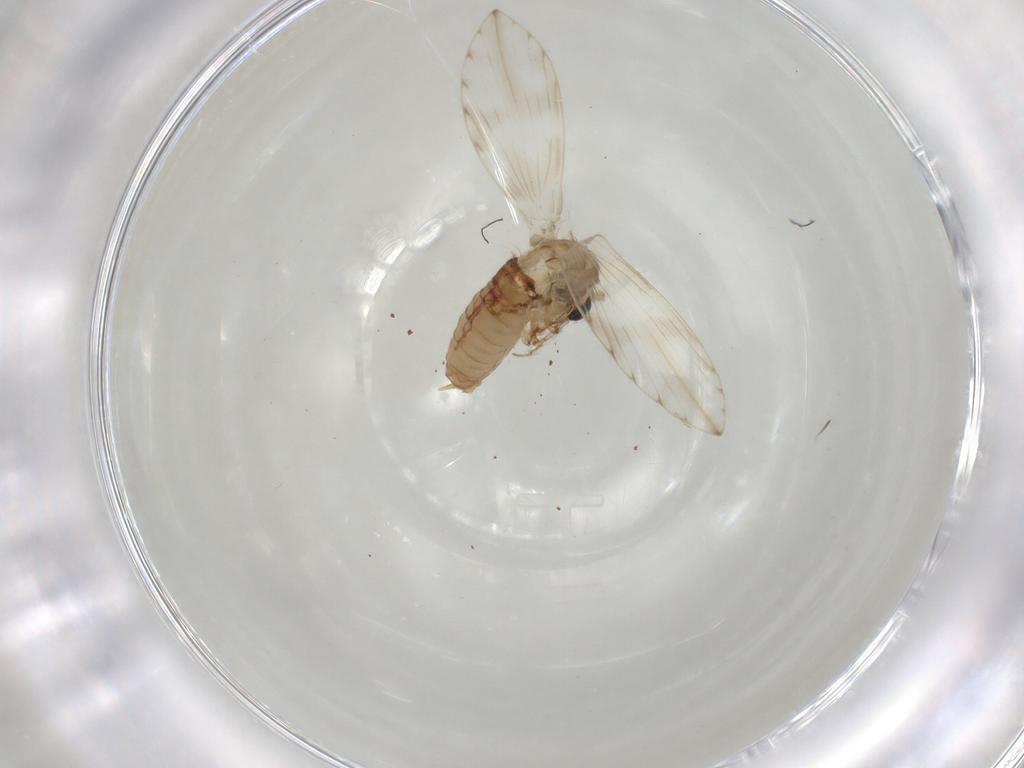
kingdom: Animalia
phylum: Arthropoda
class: Insecta
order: Diptera
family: Psychodidae
